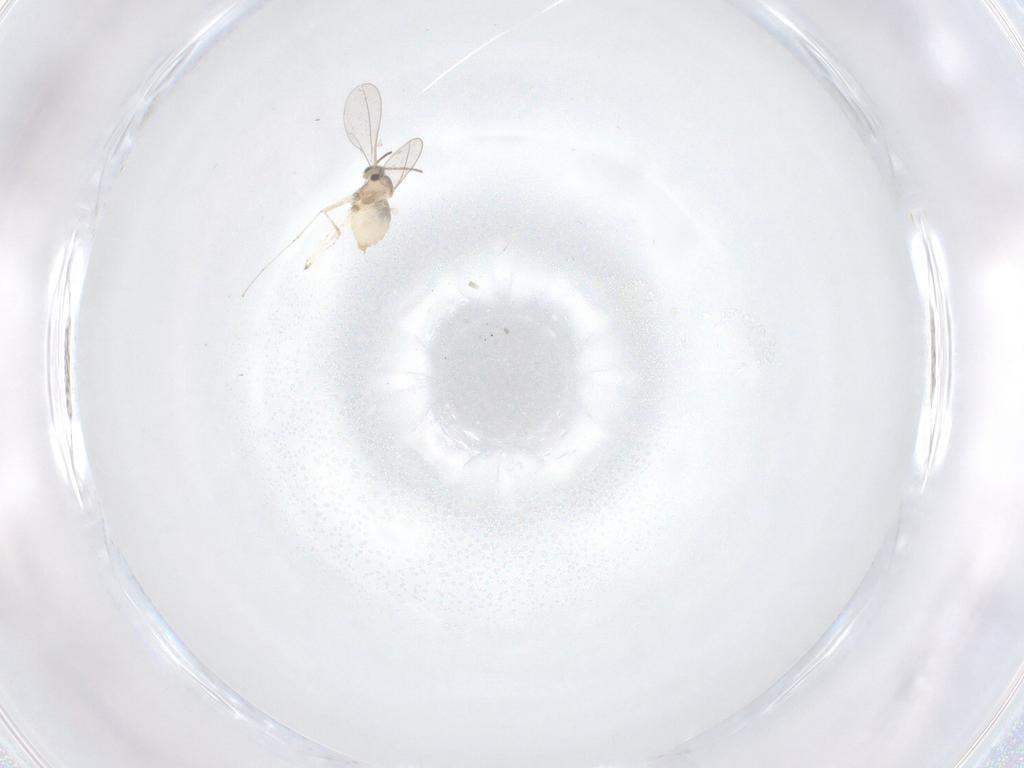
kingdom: Animalia
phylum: Arthropoda
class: Insecta
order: Diptera
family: Cecidomyiidae
